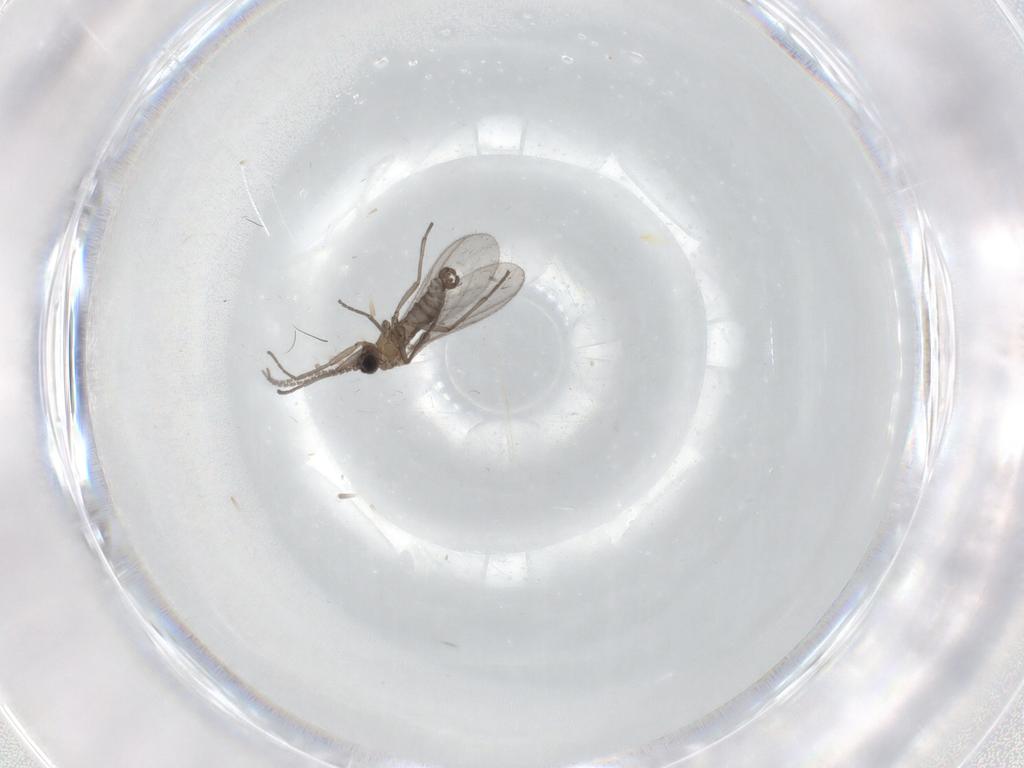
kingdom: Animalia
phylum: Arthropoda
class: Insecta
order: Diptera
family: Sciaridae
